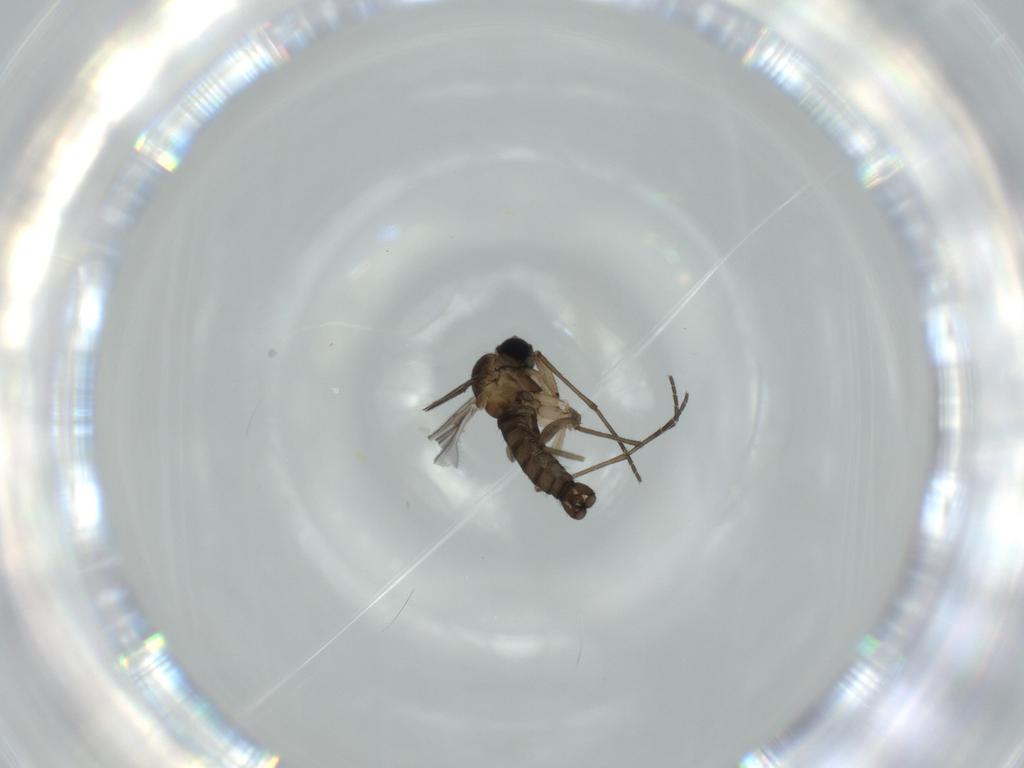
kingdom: Animalia
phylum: Arthropoda
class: Insecta
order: Diptera
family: Sciaridae
